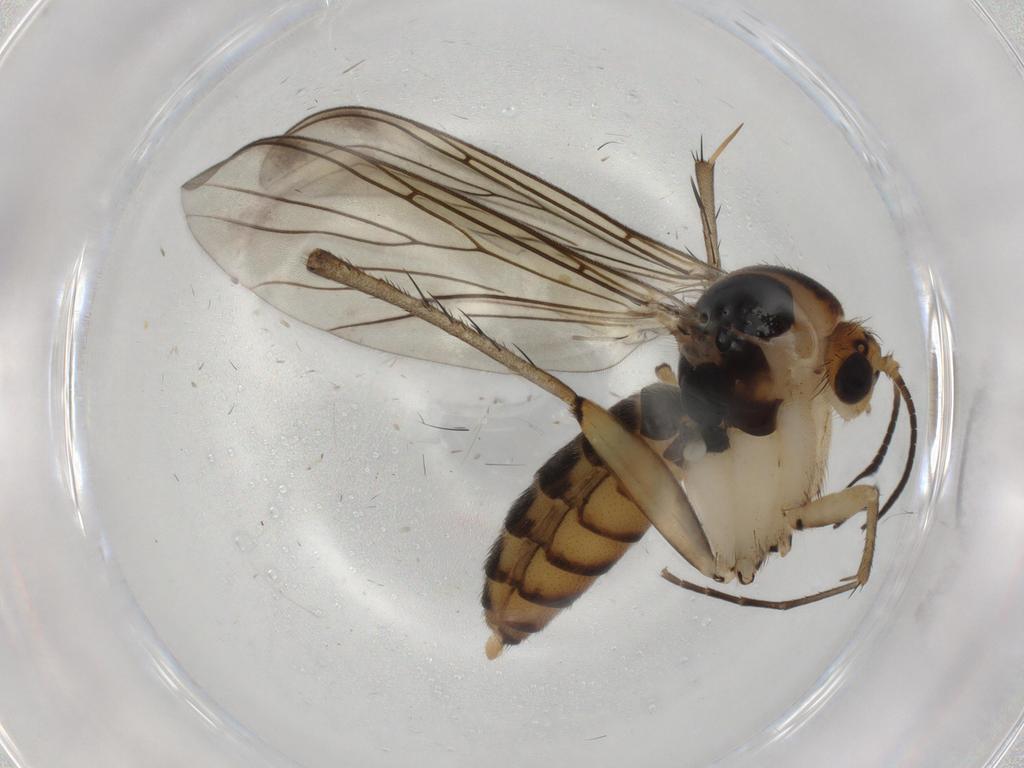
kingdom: Animalia
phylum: Arthropoda
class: Insecta
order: Diptera
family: Mycetophilidae
